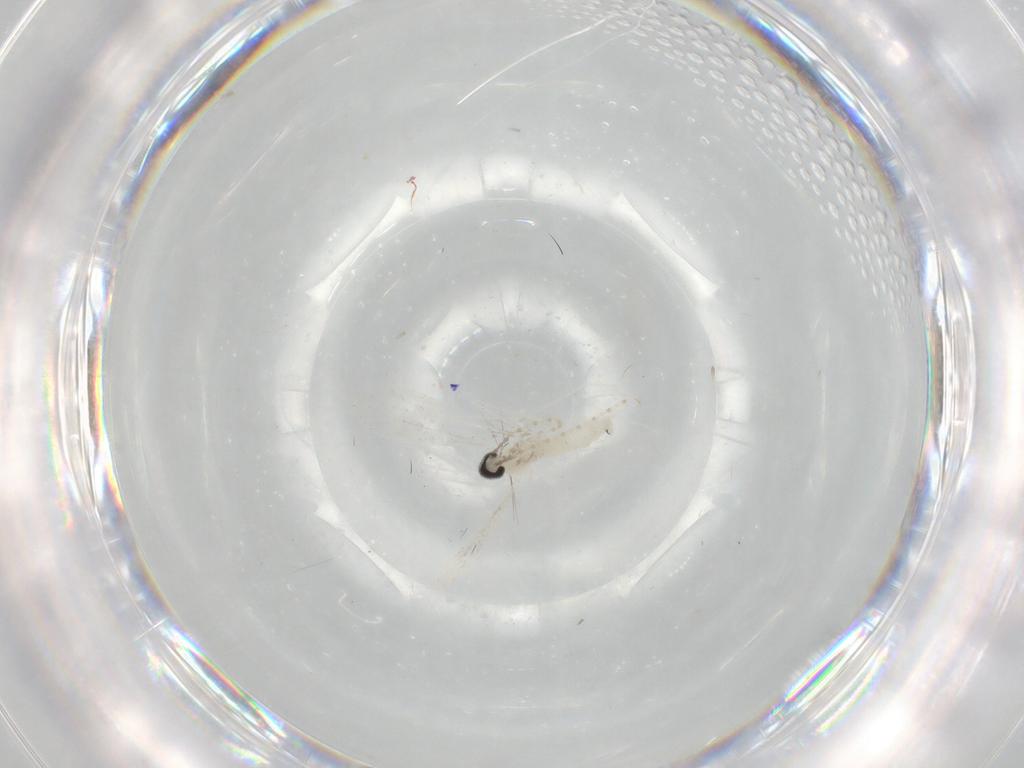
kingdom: Animalia
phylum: Arthropoda
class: Insecta
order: Diptera
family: Cecidomyiidae
